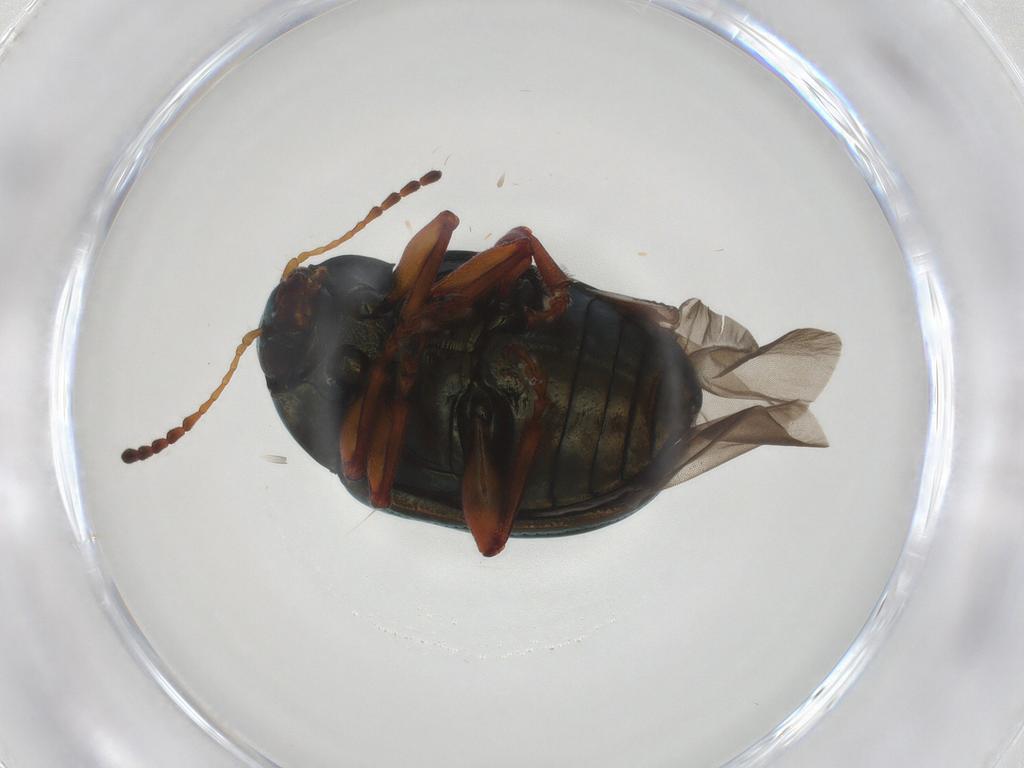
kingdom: Animalia
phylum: Arthropoda
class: Insecta
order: Coleoptera
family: Chrysomelidae
